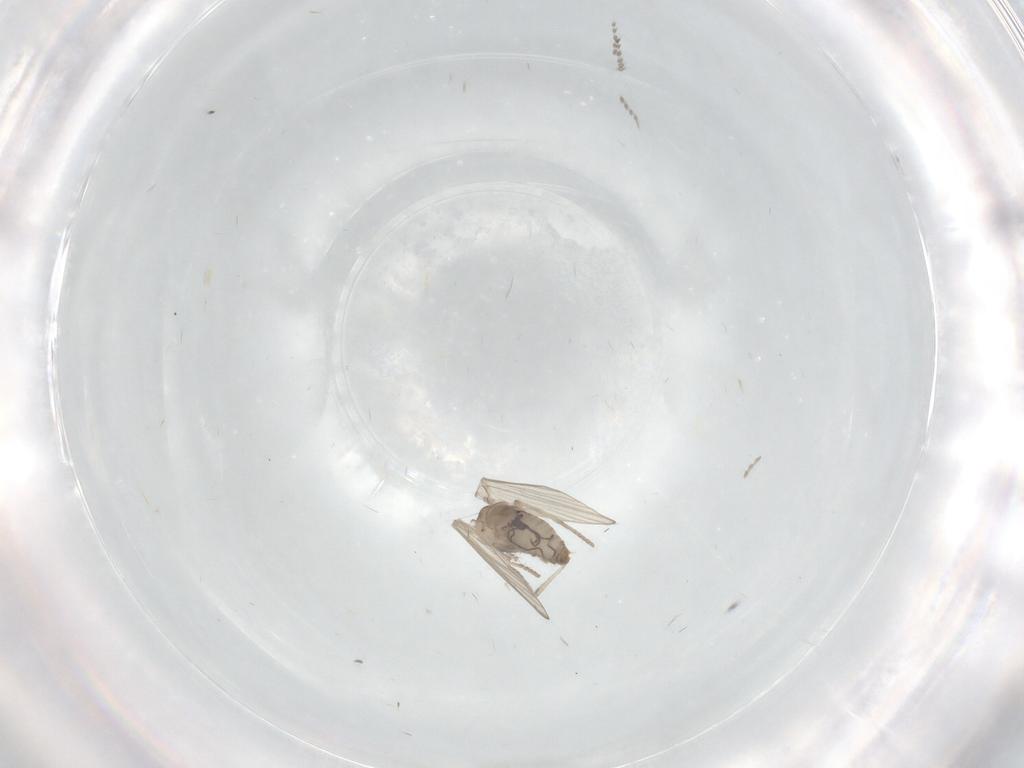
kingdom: Animalia
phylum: Arthropoda
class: Insecta
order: Diptera
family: Psychodidae
